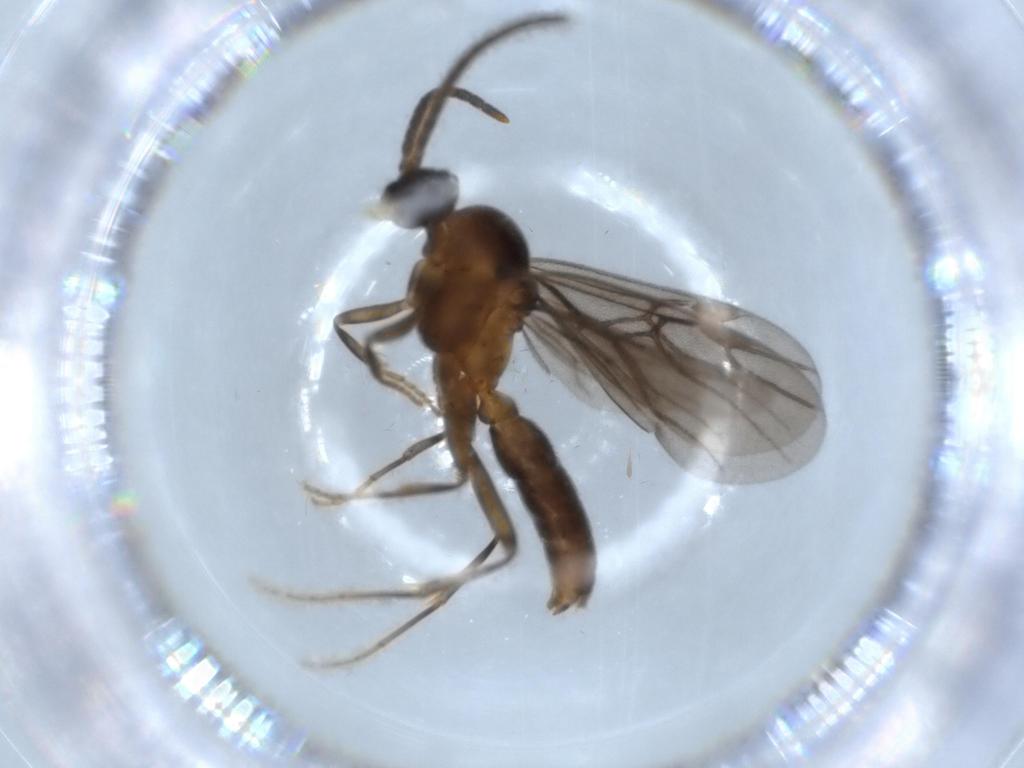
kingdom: Animalia
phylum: Arthropoda
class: Insecta
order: Hymenoptera
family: Formicidae
